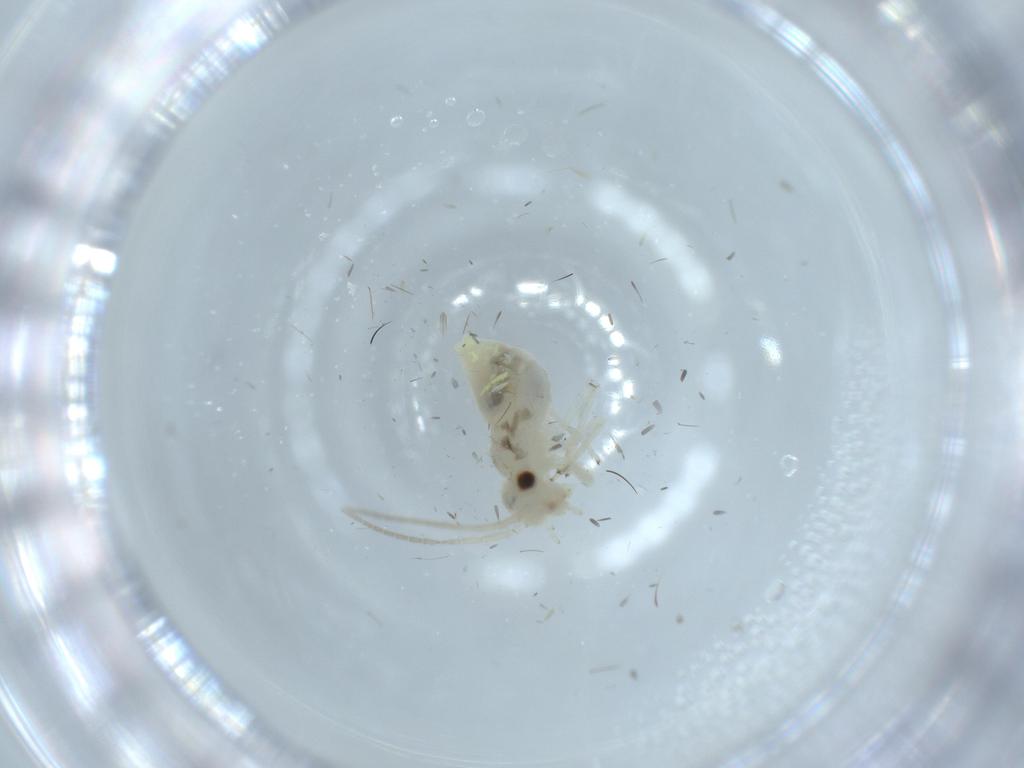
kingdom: Animalia
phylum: Arthropoda
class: Insecta
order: Psocodea
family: Caeciliusidae
